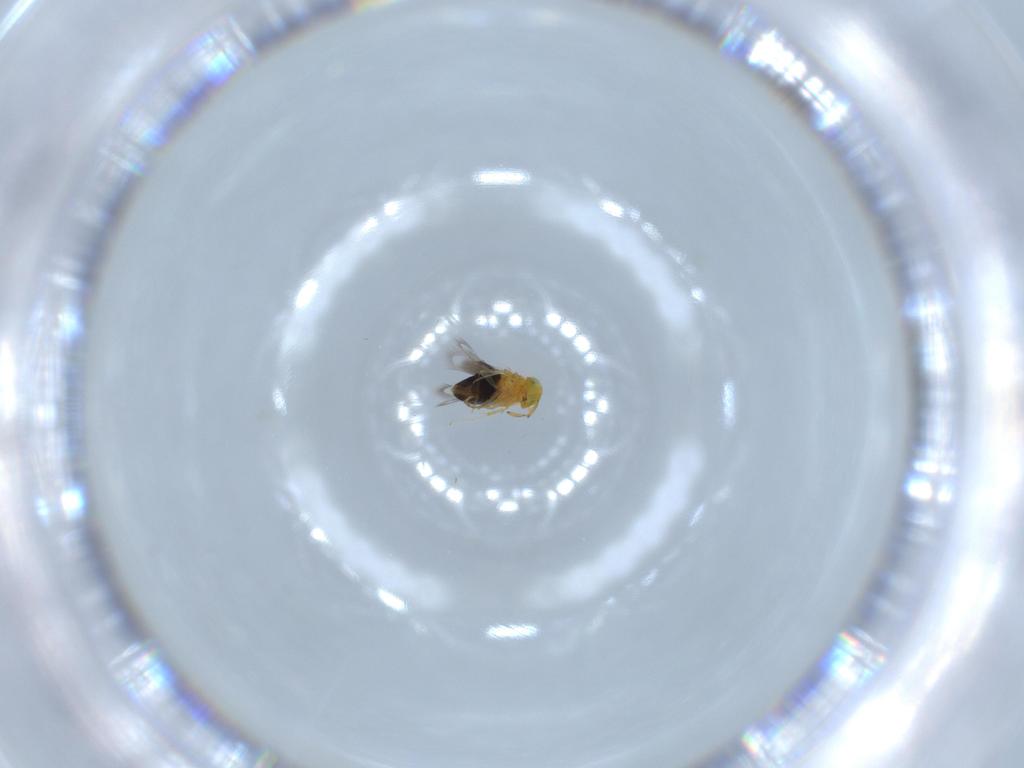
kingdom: Animalia
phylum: Arthropoda
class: Insecta
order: Hymenoptera
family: Signiphoridae
